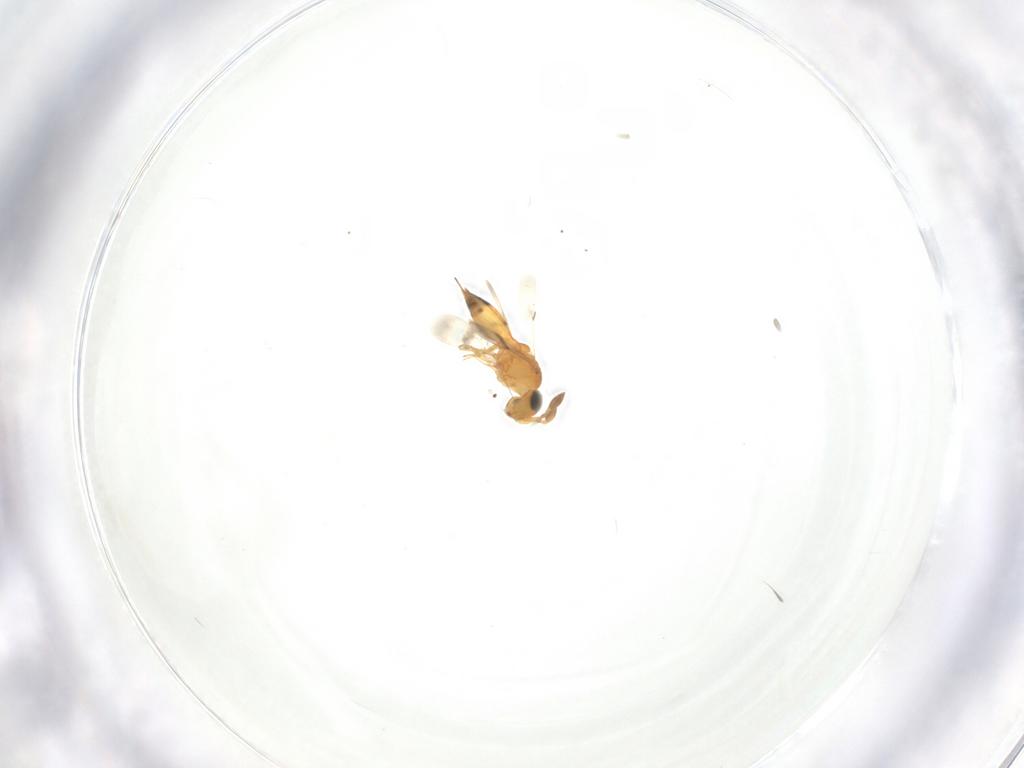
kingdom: Animalia
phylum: Arthropoda
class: Insecta
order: Hymenoptera
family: Scelionidae
